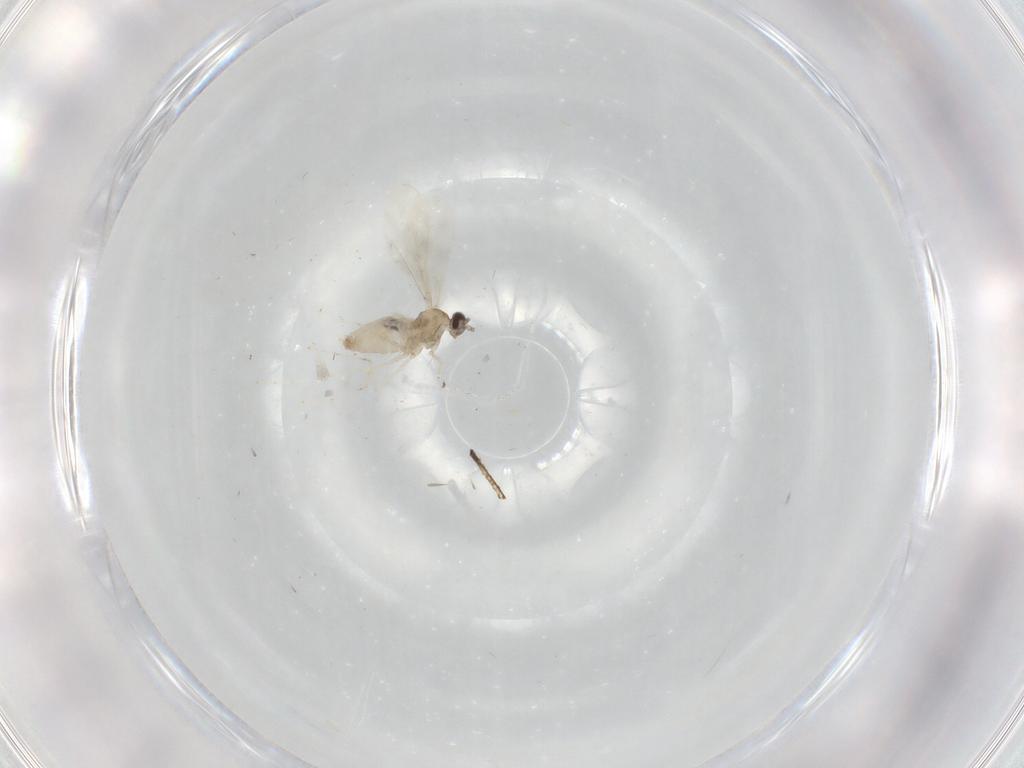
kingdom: Animalia
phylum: Arthropoda
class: Insecta
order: Diptera
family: Cecidomyiidae
